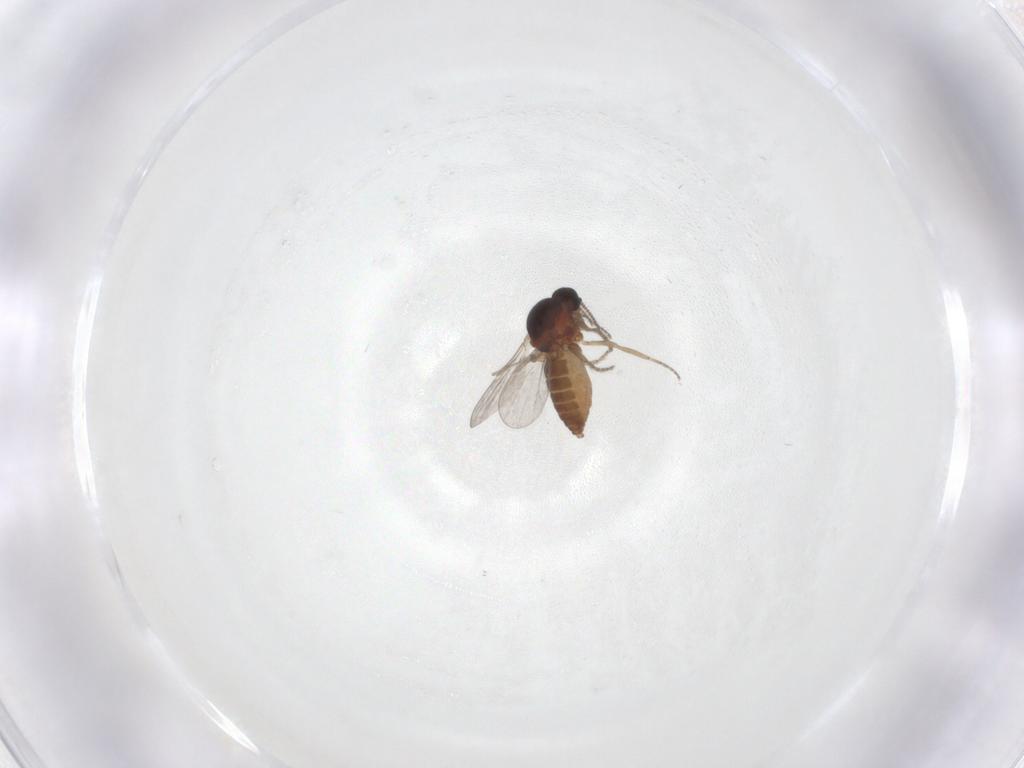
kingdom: Animalia
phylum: Arthropoda
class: Insecta
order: Diptera
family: Ceratopogonidae
